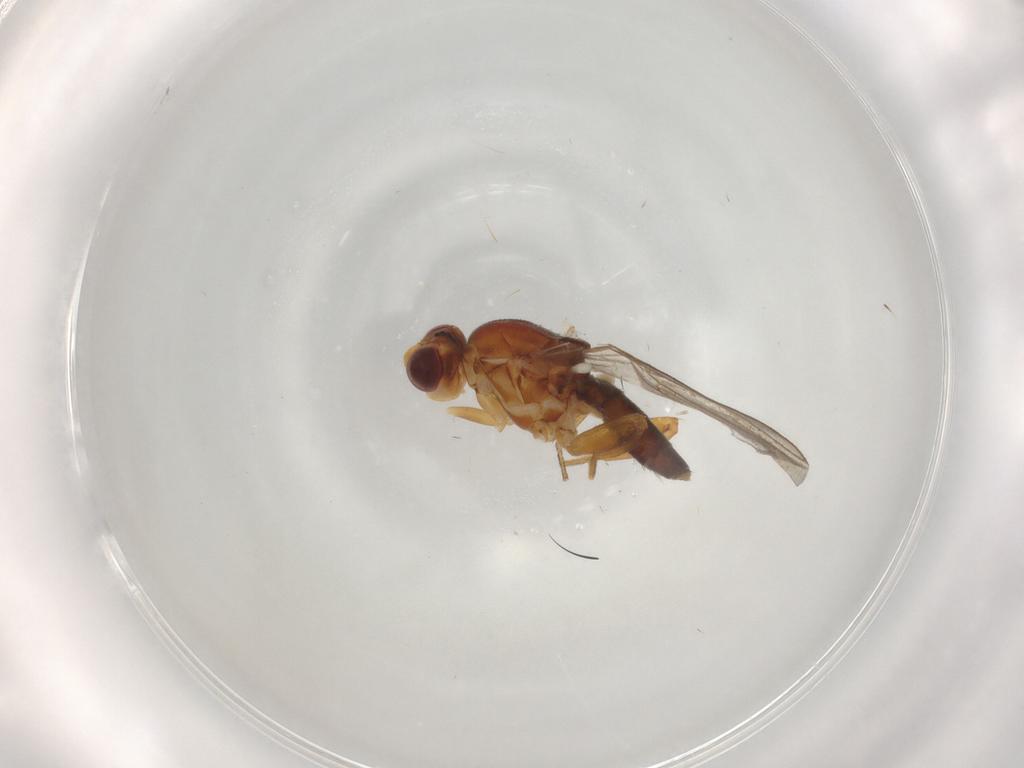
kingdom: Animalia
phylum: Arthropoda
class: Insecta
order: Diptera
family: Chloropidae
